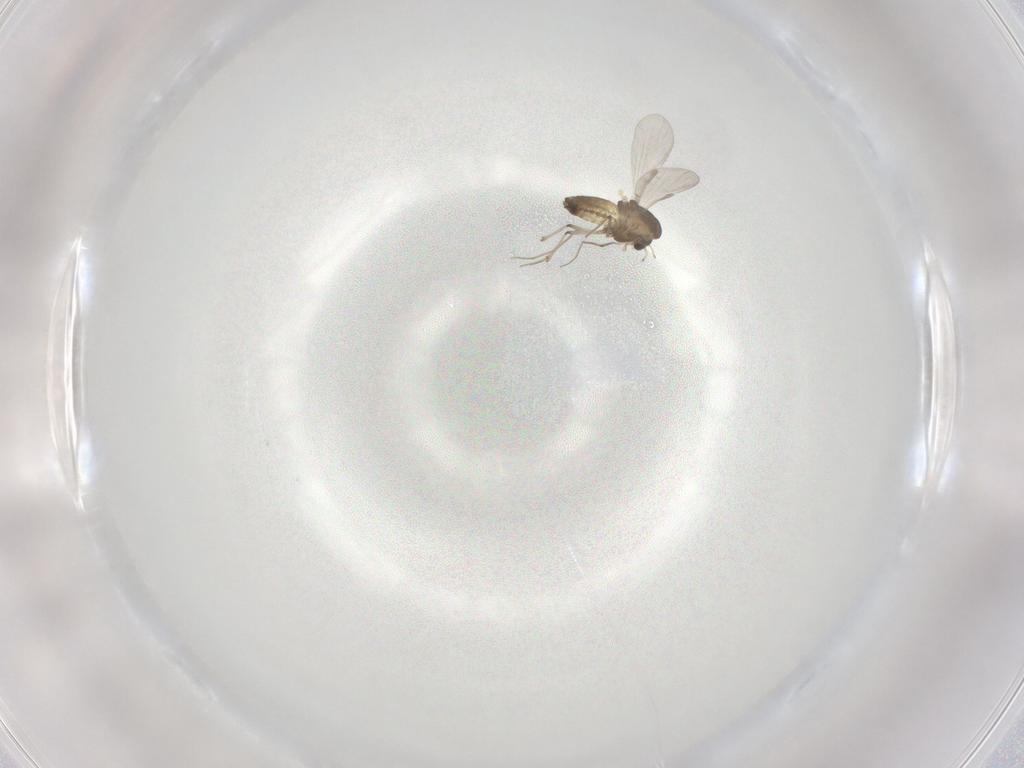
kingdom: Animalia
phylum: Arthropoda
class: Insecta
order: Diptera
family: Chironomidae
